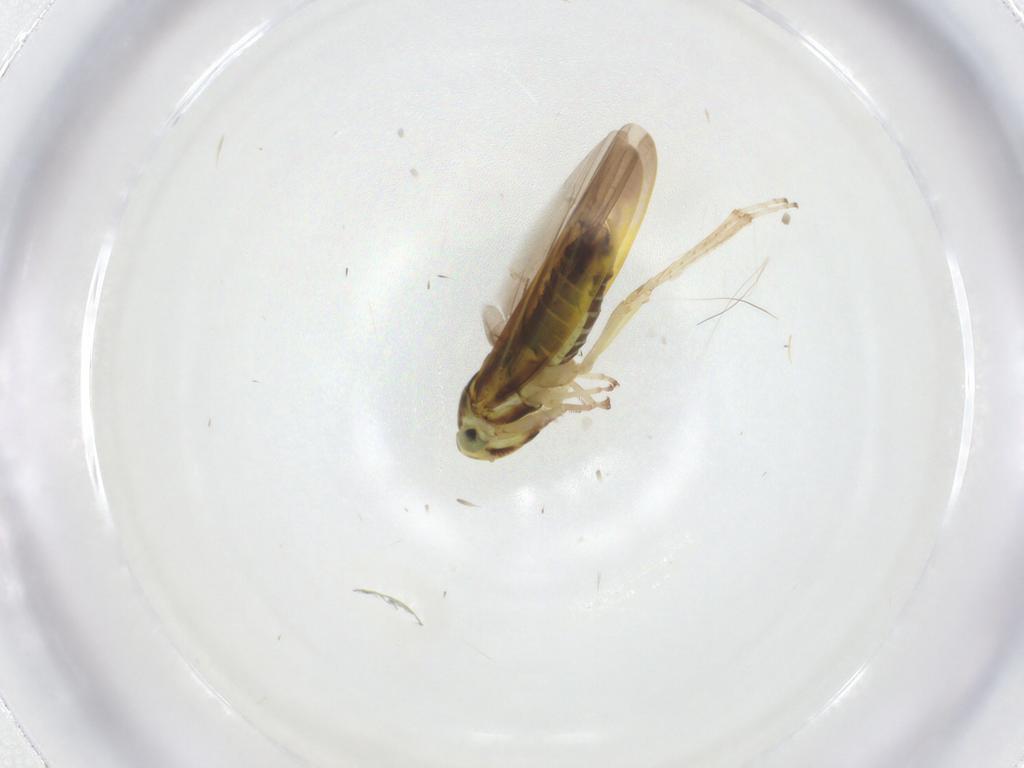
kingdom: Animalia
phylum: Arthropoda
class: Insecta
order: Hemiptera
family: Cicadellidae
